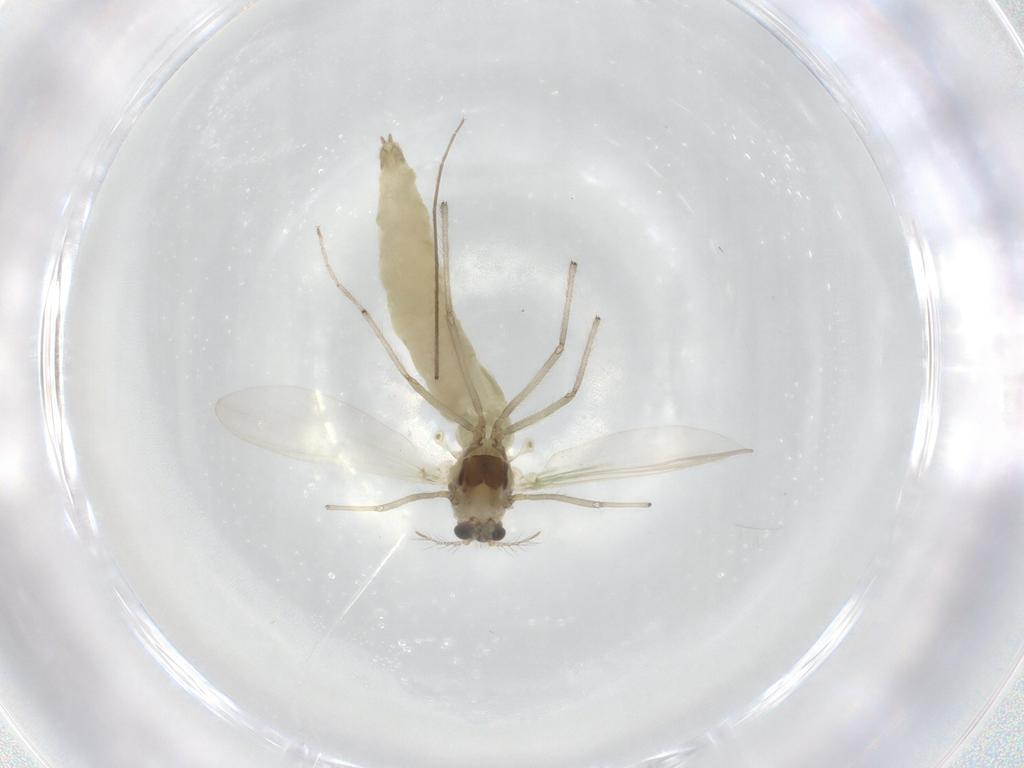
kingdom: Animalia
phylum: Arthropoda
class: Insecta
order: Diptera
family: Chironomidae
